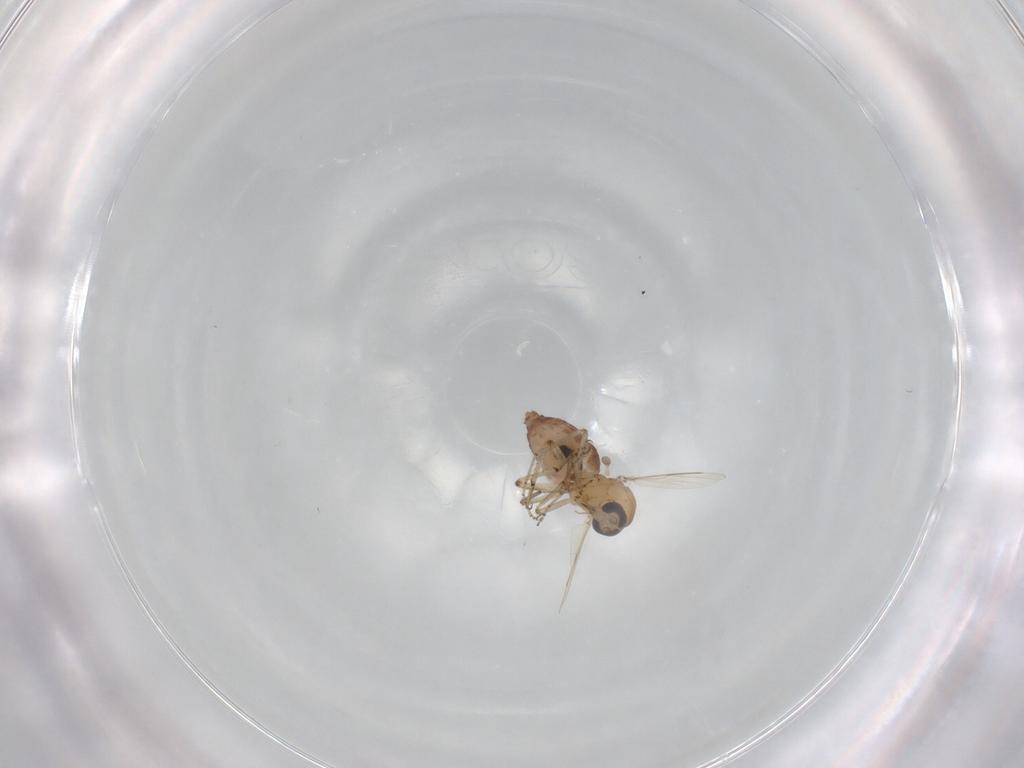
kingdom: Animalia
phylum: Arthropoda
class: Insecta
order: Diptera
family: Ceratopogonidae
